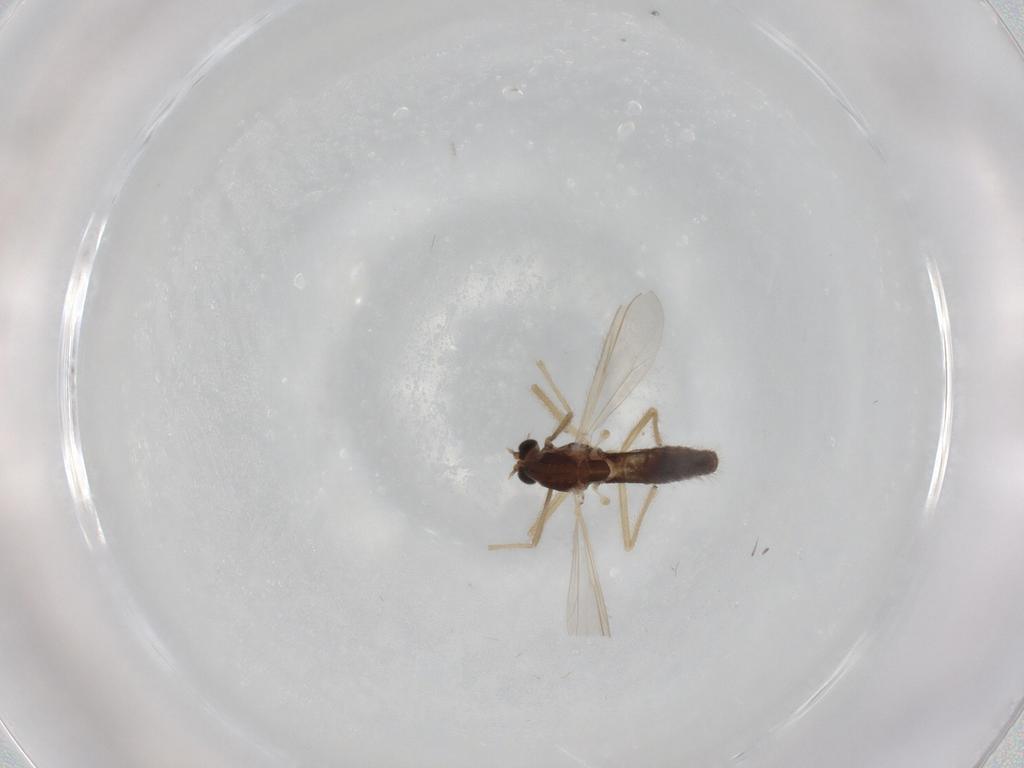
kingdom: Animalia
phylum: Arthropoda
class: Insecta
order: Diptera
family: Chironomidae
